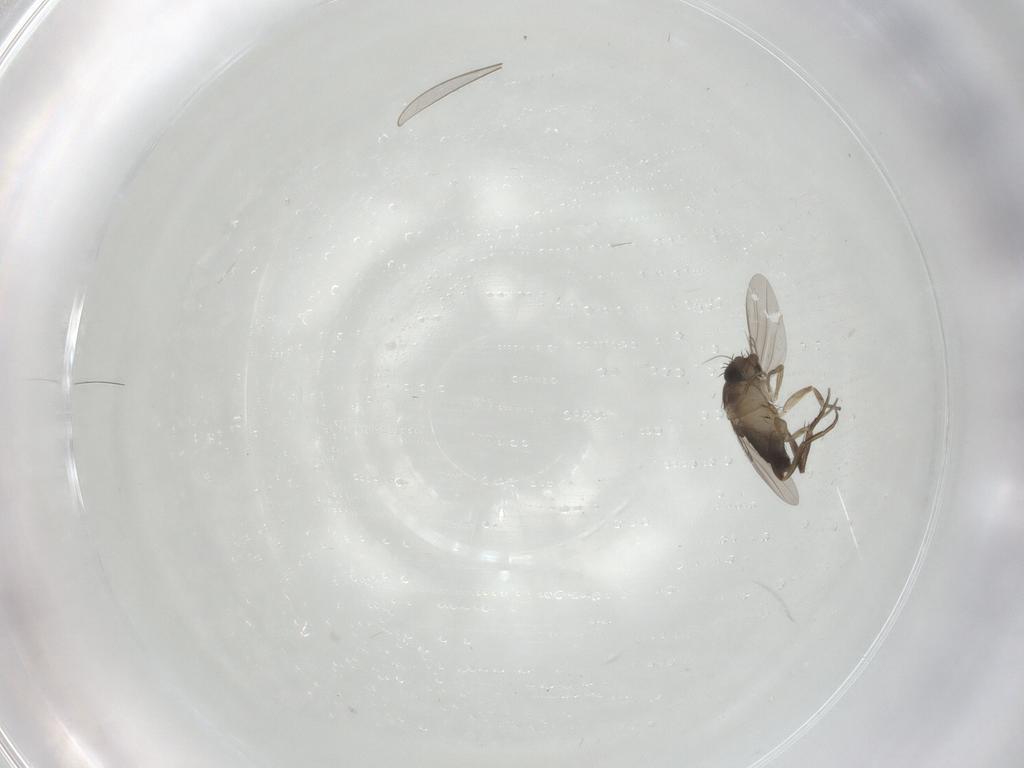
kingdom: Animalia
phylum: Arthropoda
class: Insecta
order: Diptera
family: Phoridae
